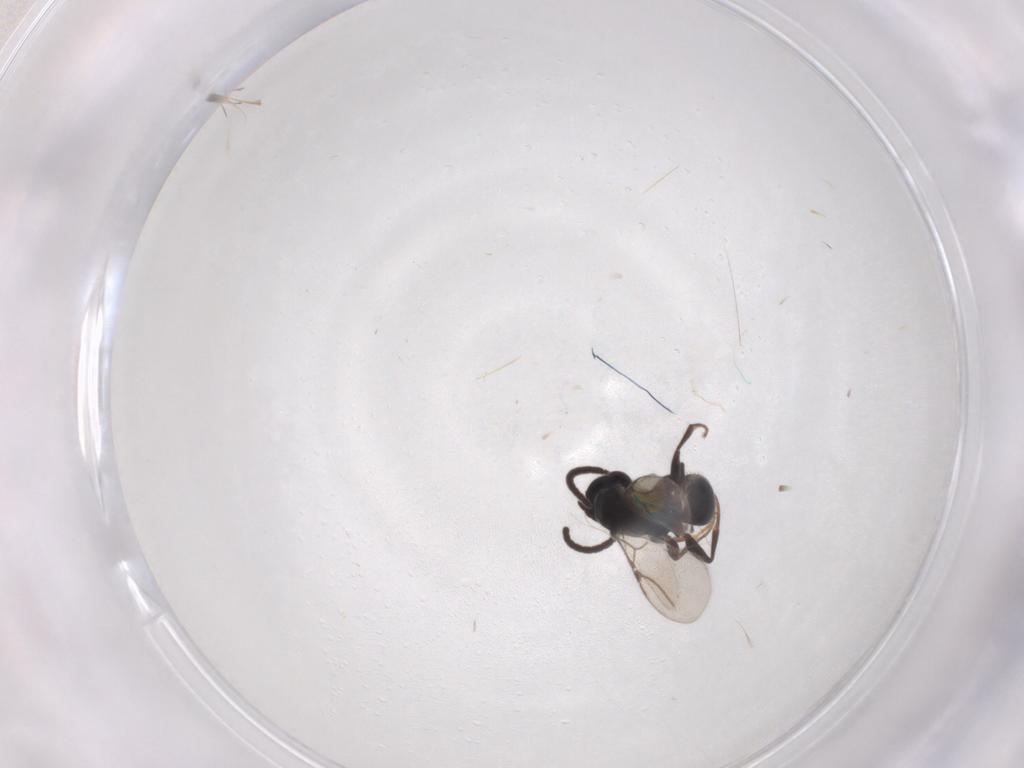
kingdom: Animalia
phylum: Arthropoda
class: Insecta
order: Hymenoptera
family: Bethylidae
